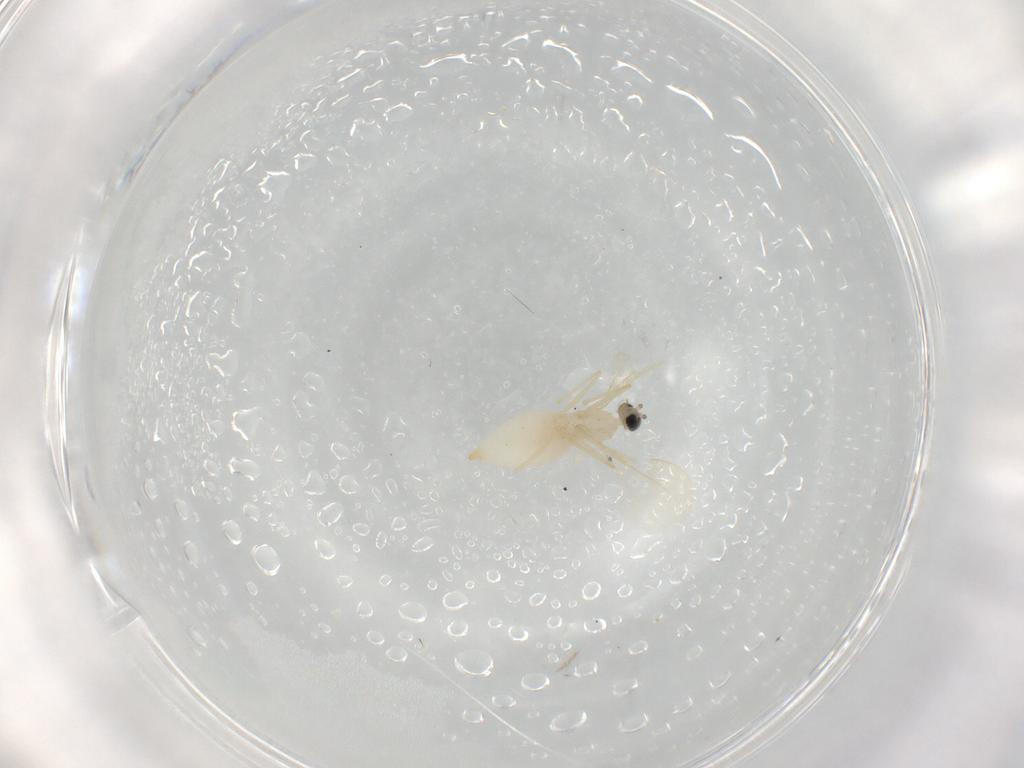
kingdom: Animalia
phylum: Arthropoda
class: Insecta
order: Diptera
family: Cecidomyiidae
